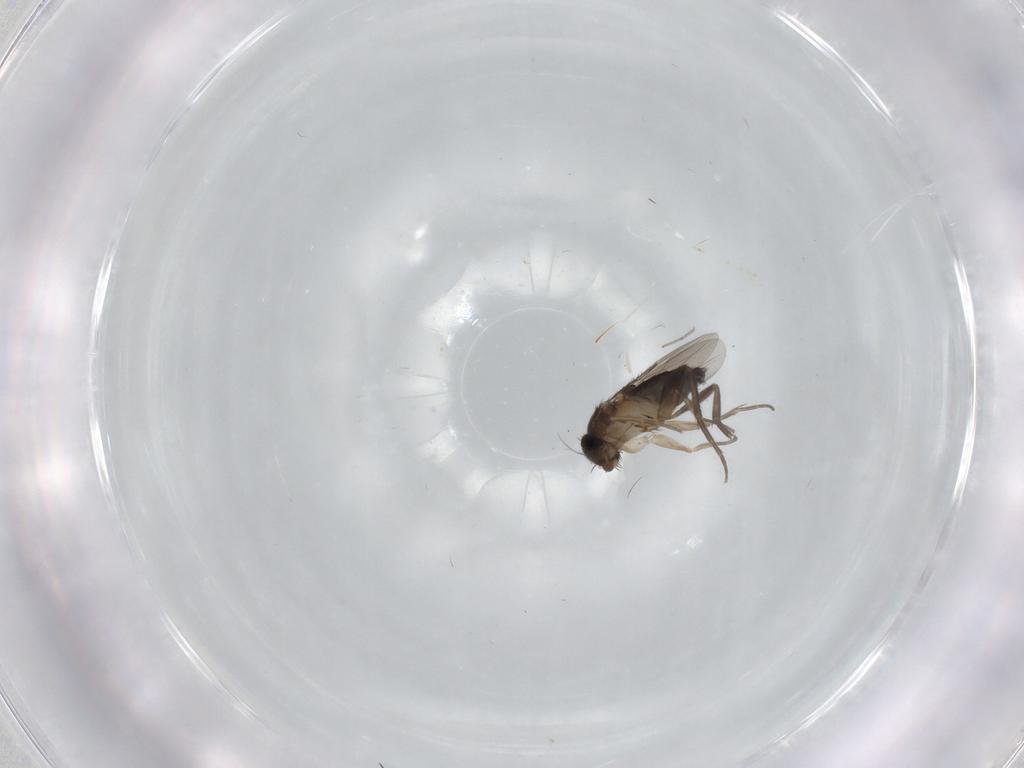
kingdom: Animalia
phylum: Arthropoda
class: Insecta
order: Diptera
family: Phoridae
